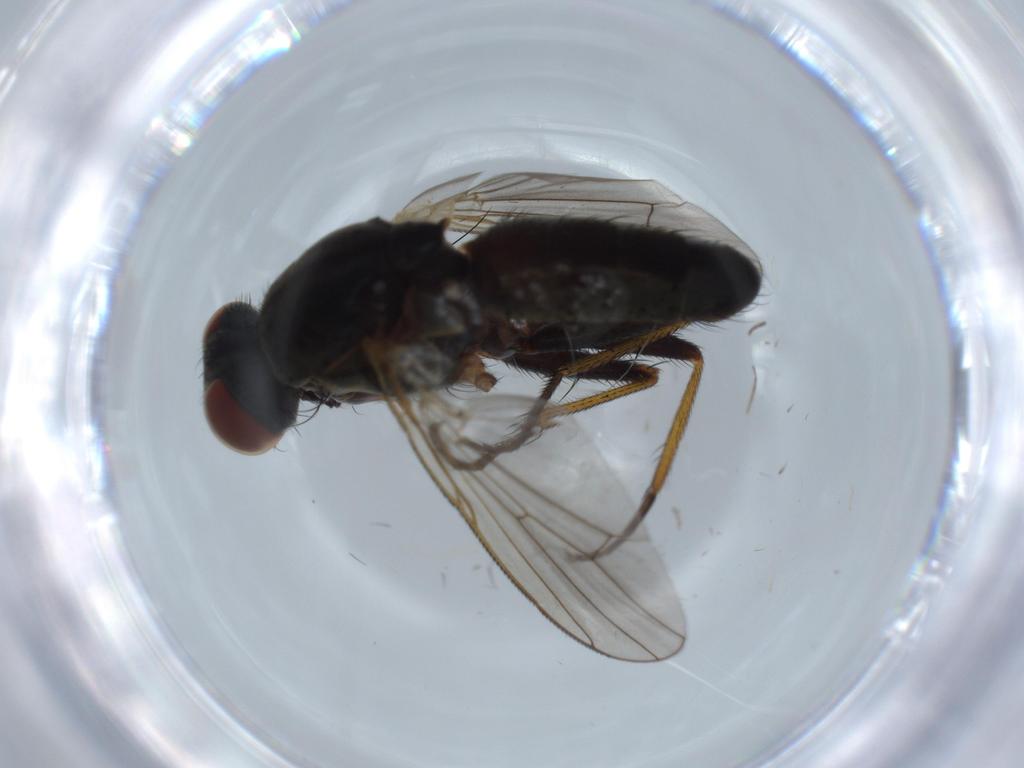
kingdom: Animalia
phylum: Arthropoda
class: Insecta
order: Diptera
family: Muscidae
